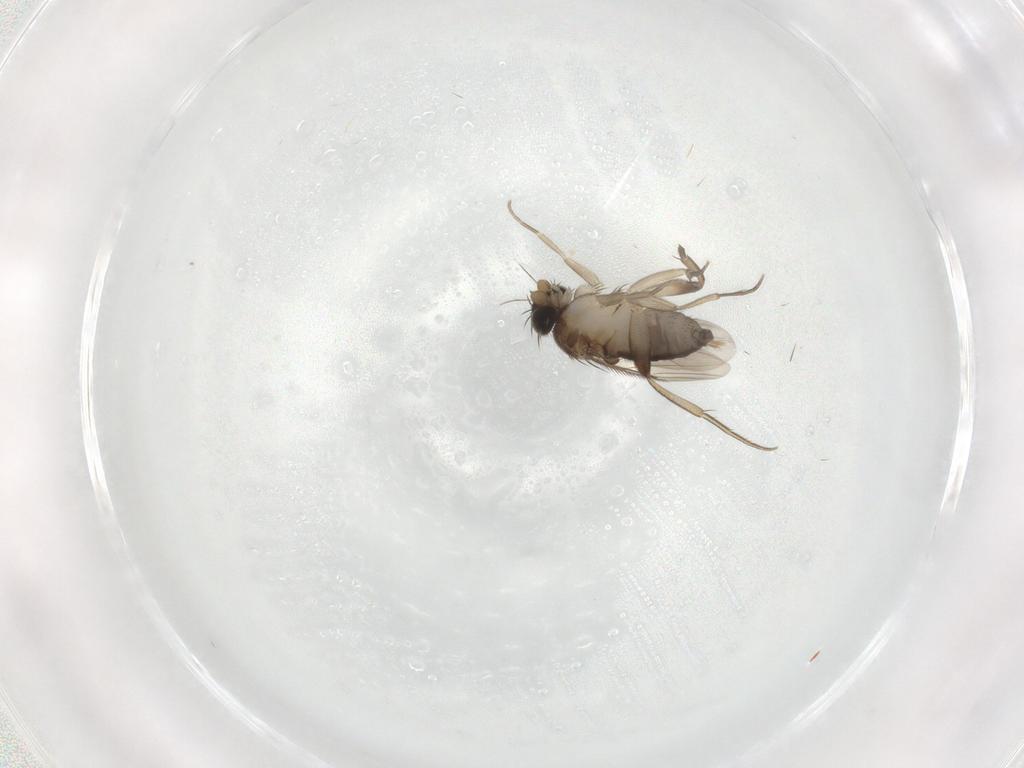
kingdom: Animalia
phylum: Arthropoda
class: Insecta
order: Diptera
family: Phoridae
